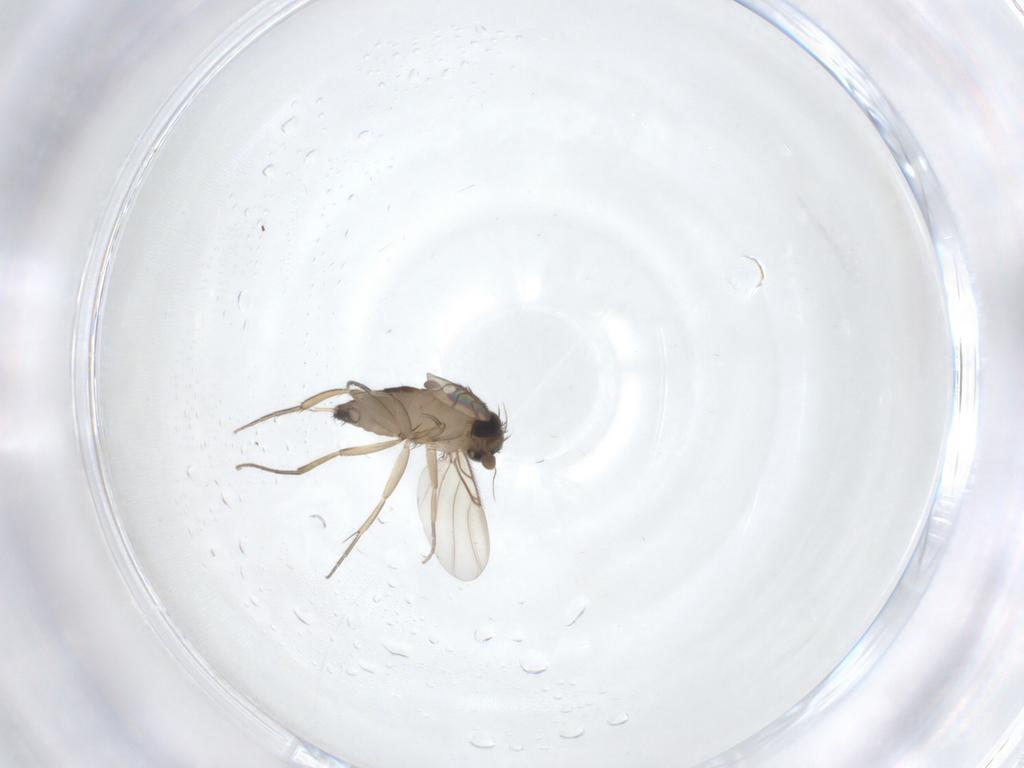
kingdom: Animalia
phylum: Arthropoda
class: Insecta
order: Diptera
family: Phoridae
